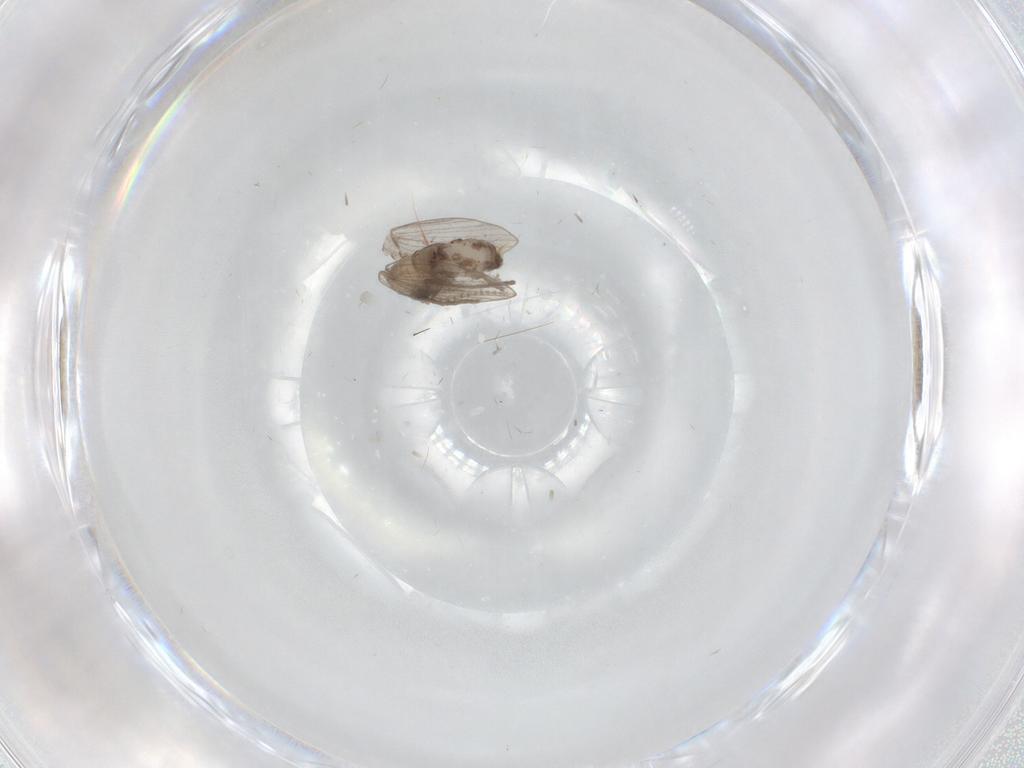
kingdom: Animalia
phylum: Arthropoda
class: Insecta
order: Diptera
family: Psychodidae
